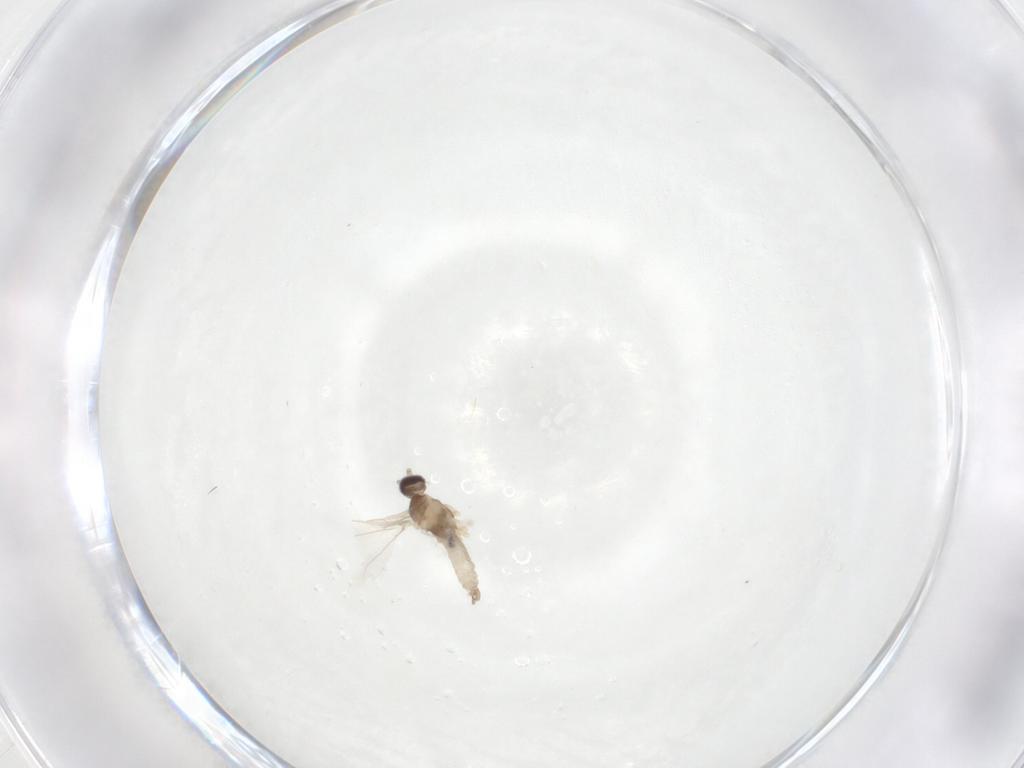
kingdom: Animalia
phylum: Arthropoda
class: Insecta
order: Diptera
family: Cecidomyiidae
